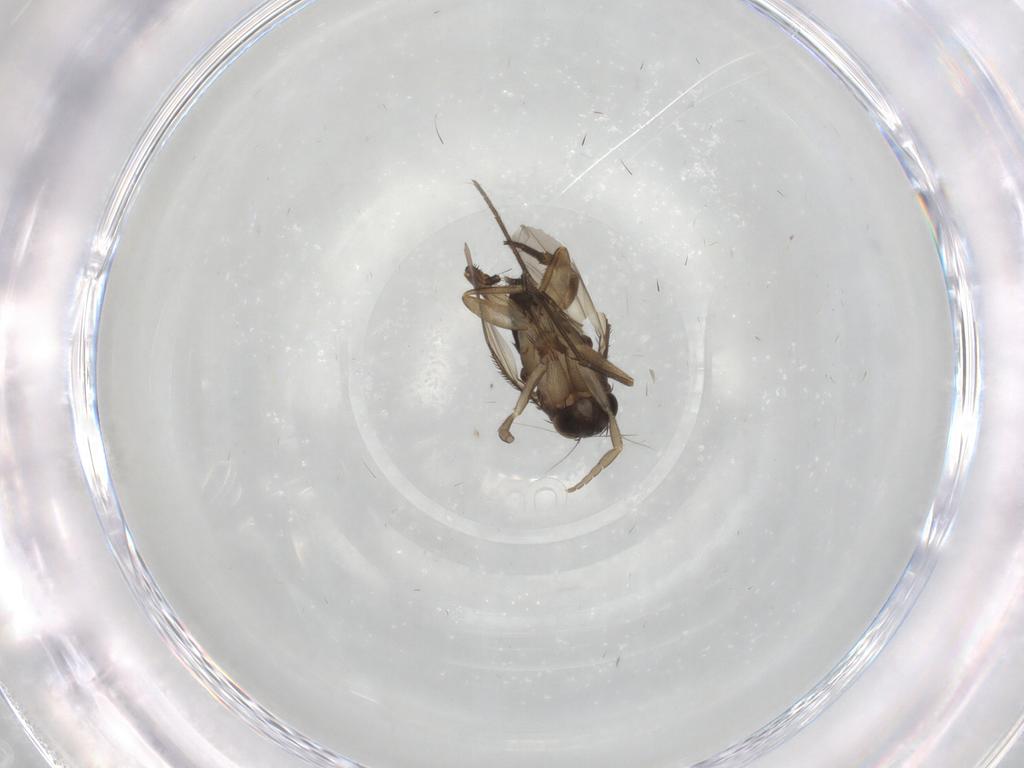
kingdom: Animalia
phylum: Arthropoda
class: Insecta
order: Diptera
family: Phoridae
